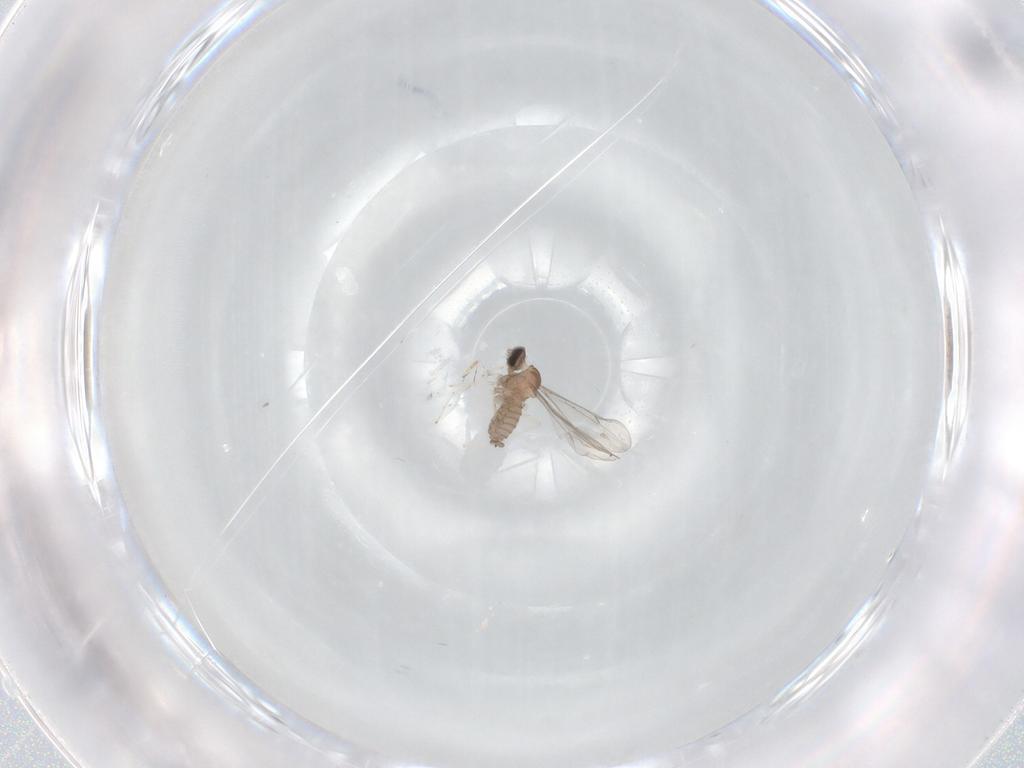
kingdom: Animalia
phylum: Arthropoda
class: Insecta
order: Diptera
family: Cecidomyiidae
